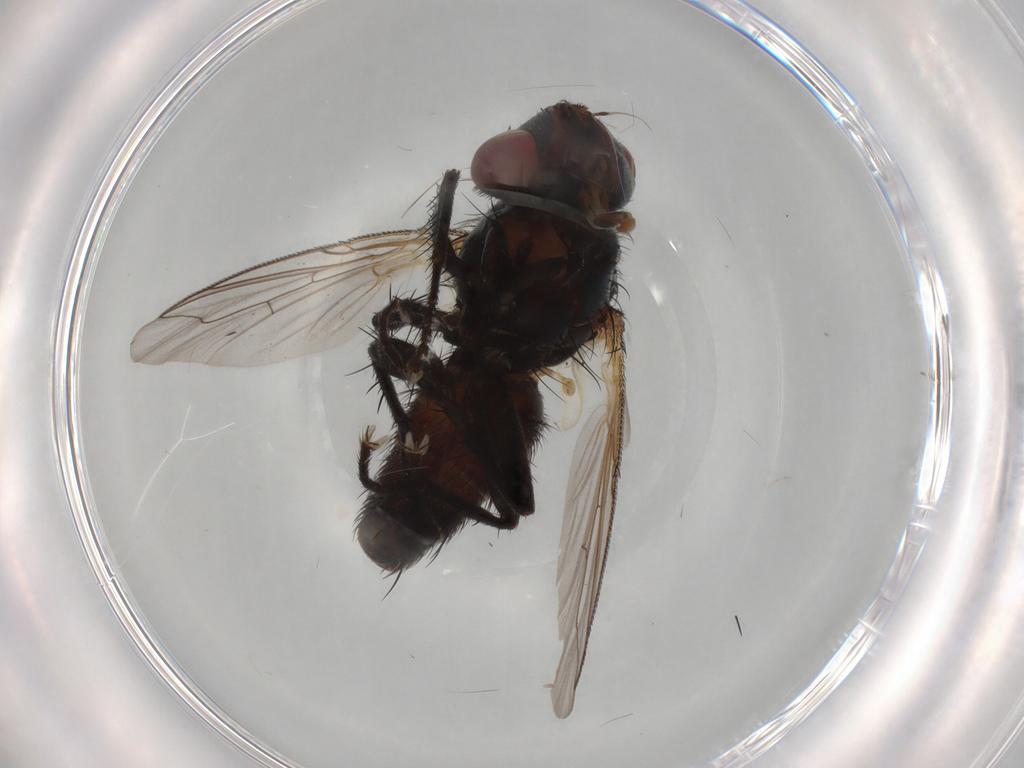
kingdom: Animalia
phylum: Arthropoda
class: Insecta
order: Diptera
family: Sarcophagidae
